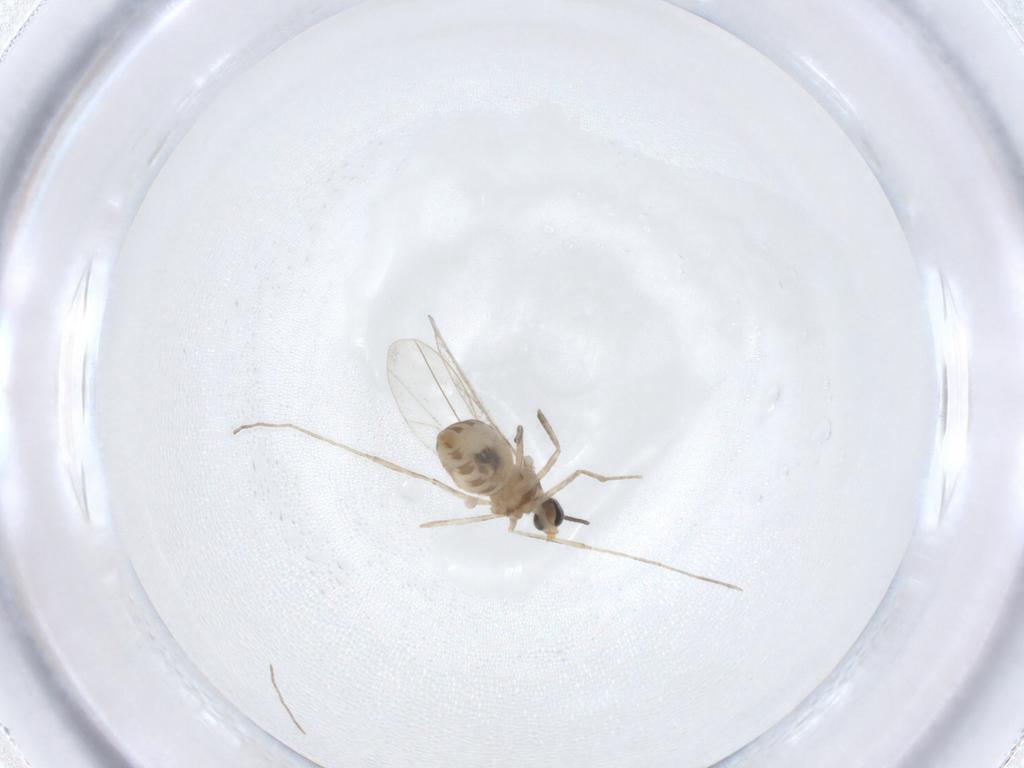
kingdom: Animalia
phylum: Arthropoda
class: Insecta
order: Diptera
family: Cecidomyiidae
